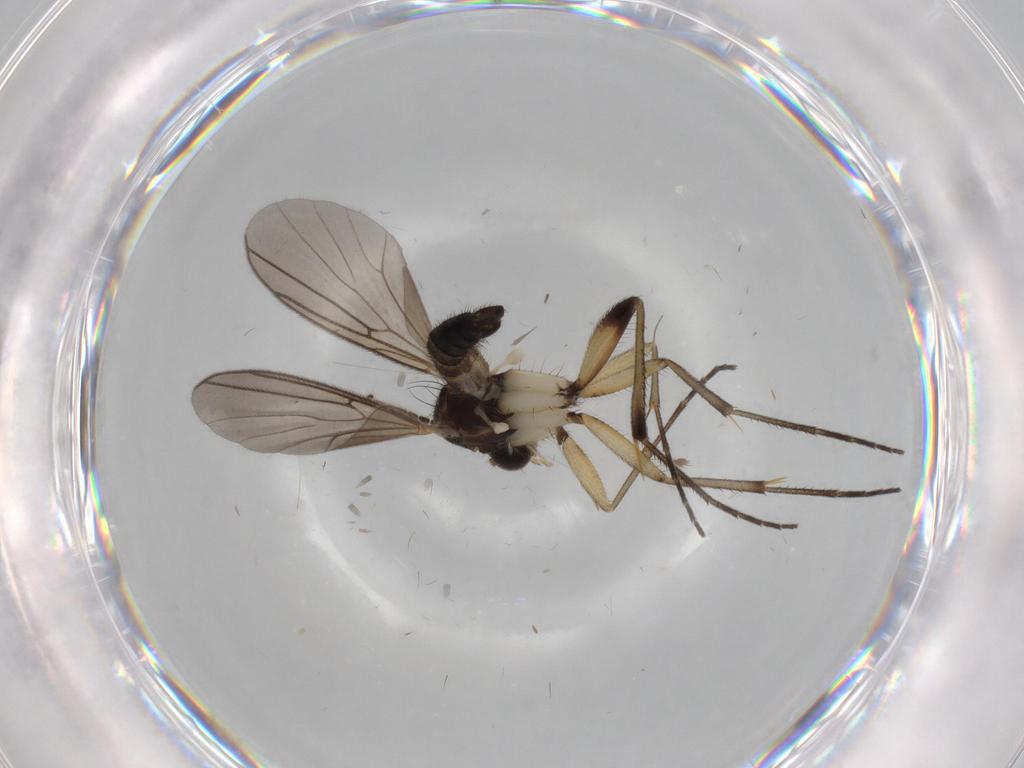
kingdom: Animalia
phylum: Arthropoda
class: Insecta
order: Diptera
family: Mycetophilidae
